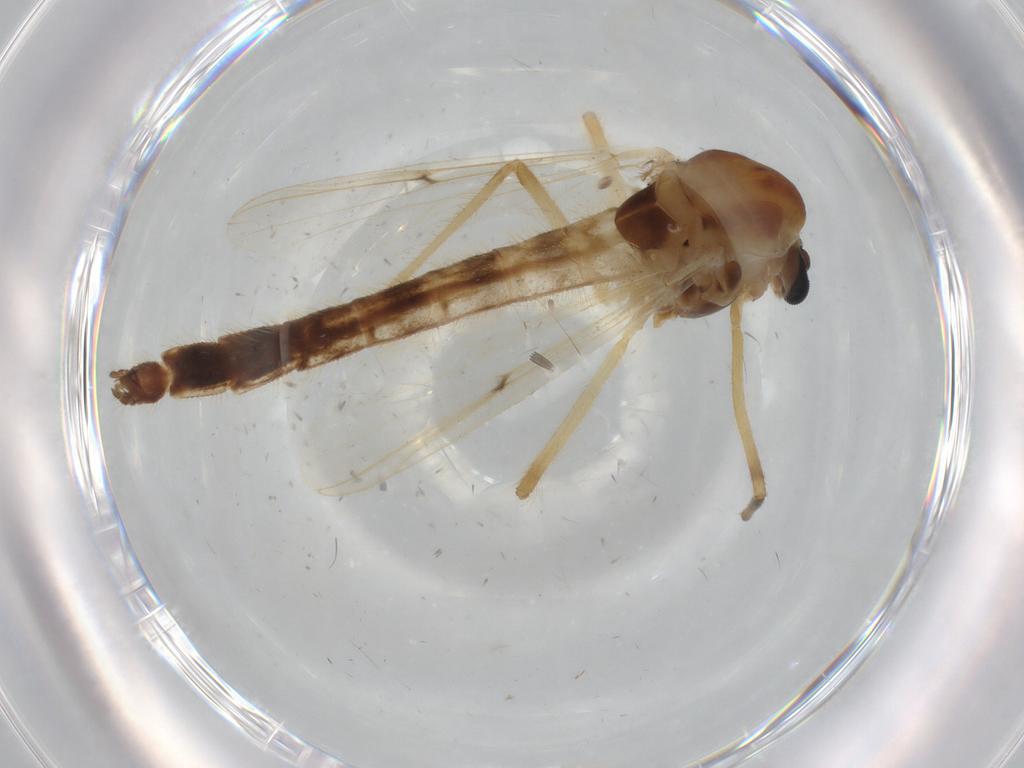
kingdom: Animalia
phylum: Arthropoda
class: Insecta
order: Diptera
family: Chironomidae
